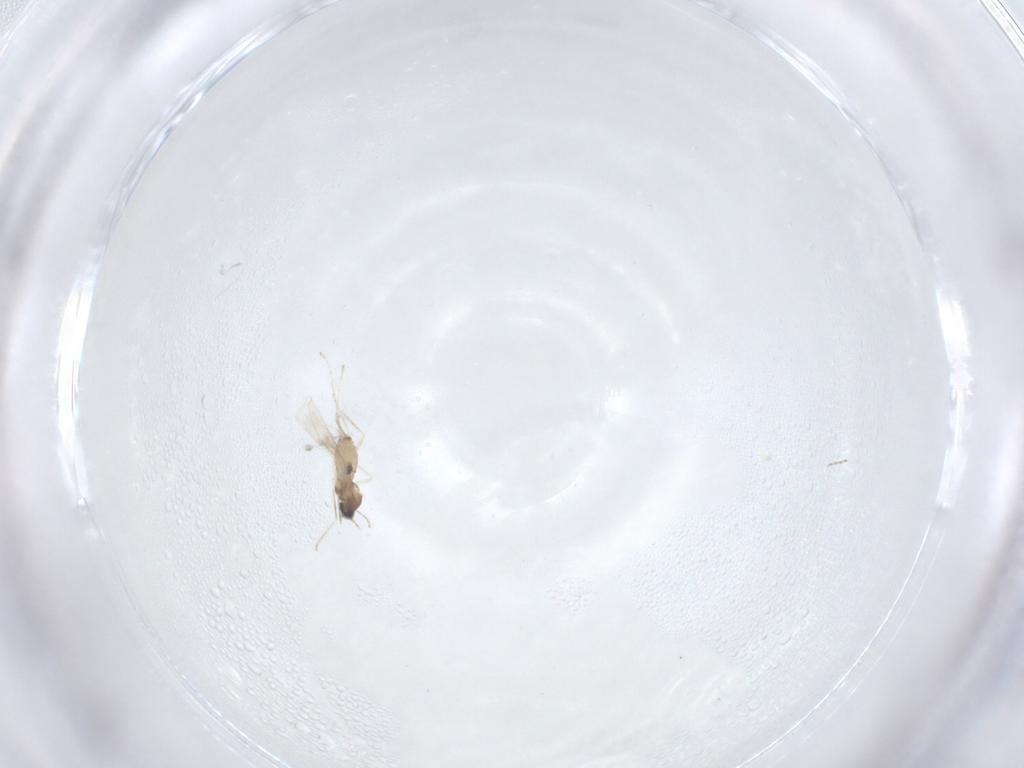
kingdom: Animalia
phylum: Arthropoda
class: Insecta
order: Diptera
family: Cecidomyiidae
